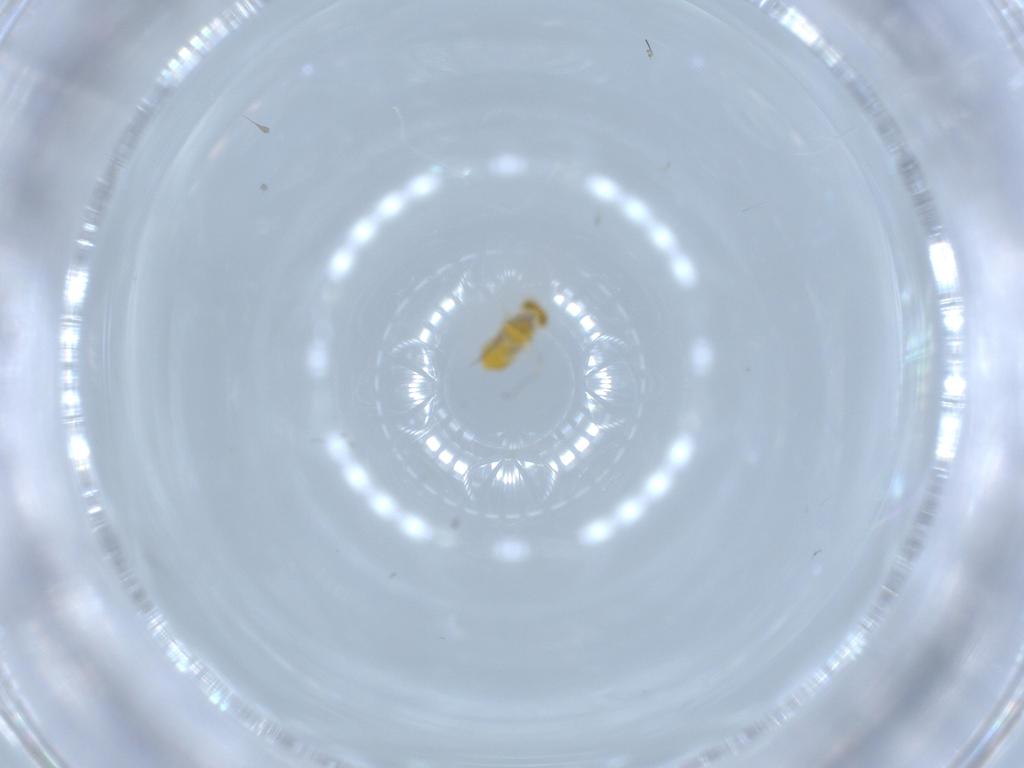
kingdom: Animalia
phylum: Arthropoda
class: Insecta
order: Hymenoptera
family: Aphelinidae
